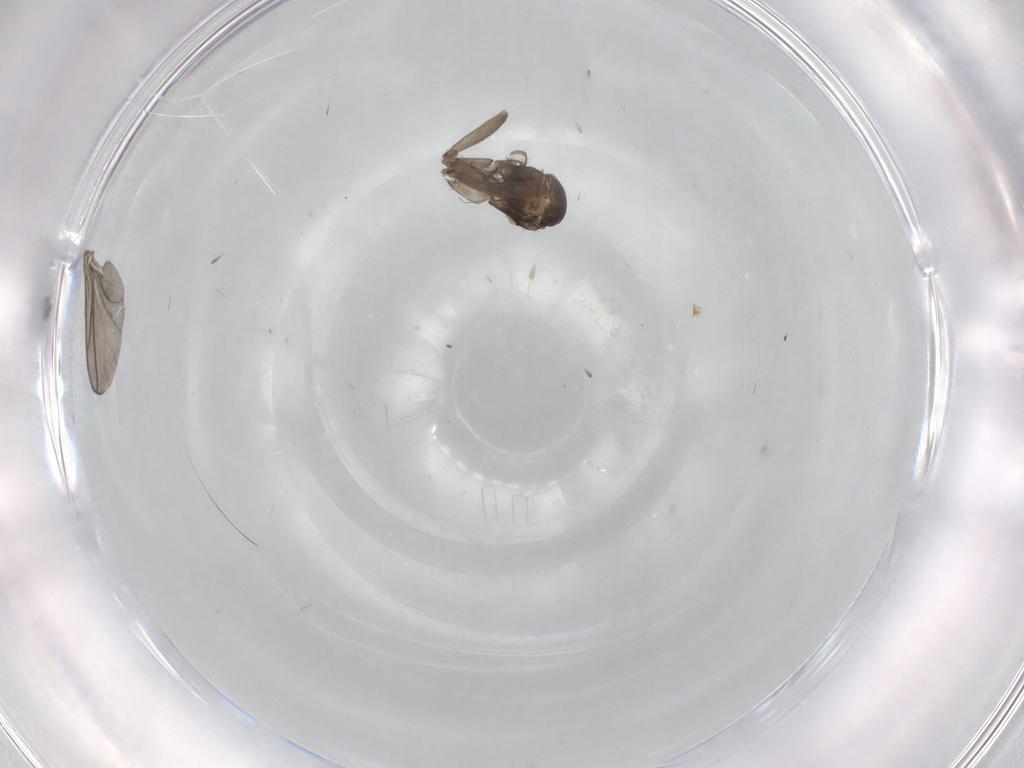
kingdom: Animalia
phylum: Arthropoda
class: Insecta
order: Diptera
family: Cecidomyiidae
